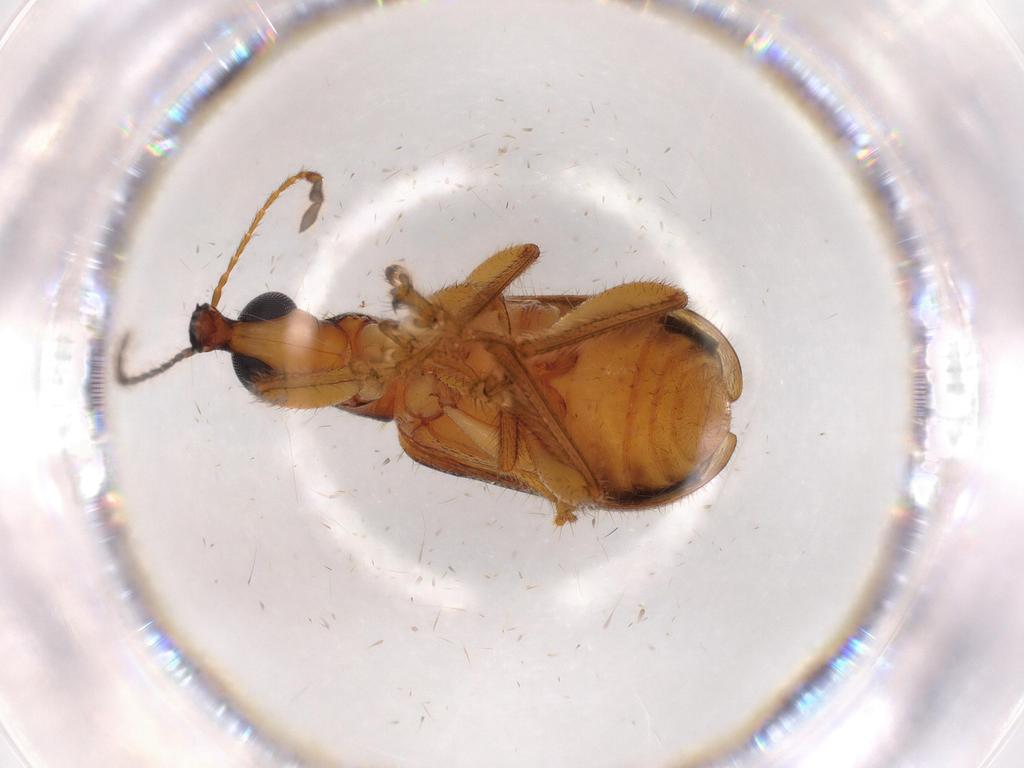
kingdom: Animalia
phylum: Arthropoda
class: Insecta
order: Coleoptera
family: Attelabidae
